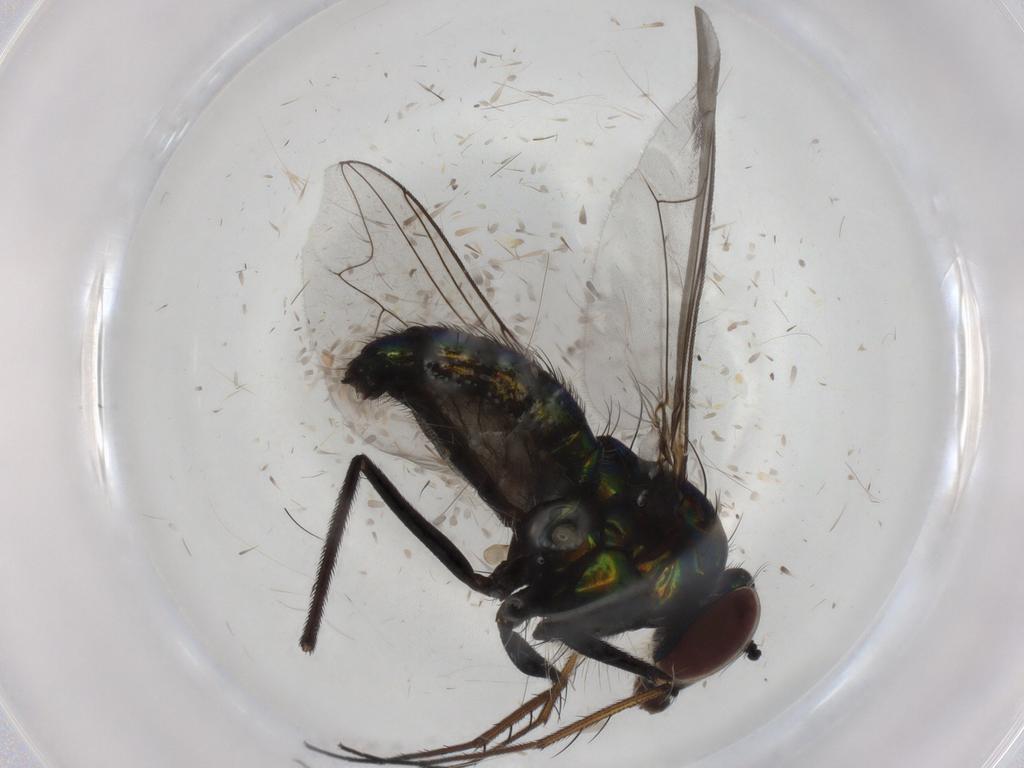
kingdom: Animalia
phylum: Arthropoda
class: Insecta
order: Diptera
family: Dolichopodidae
